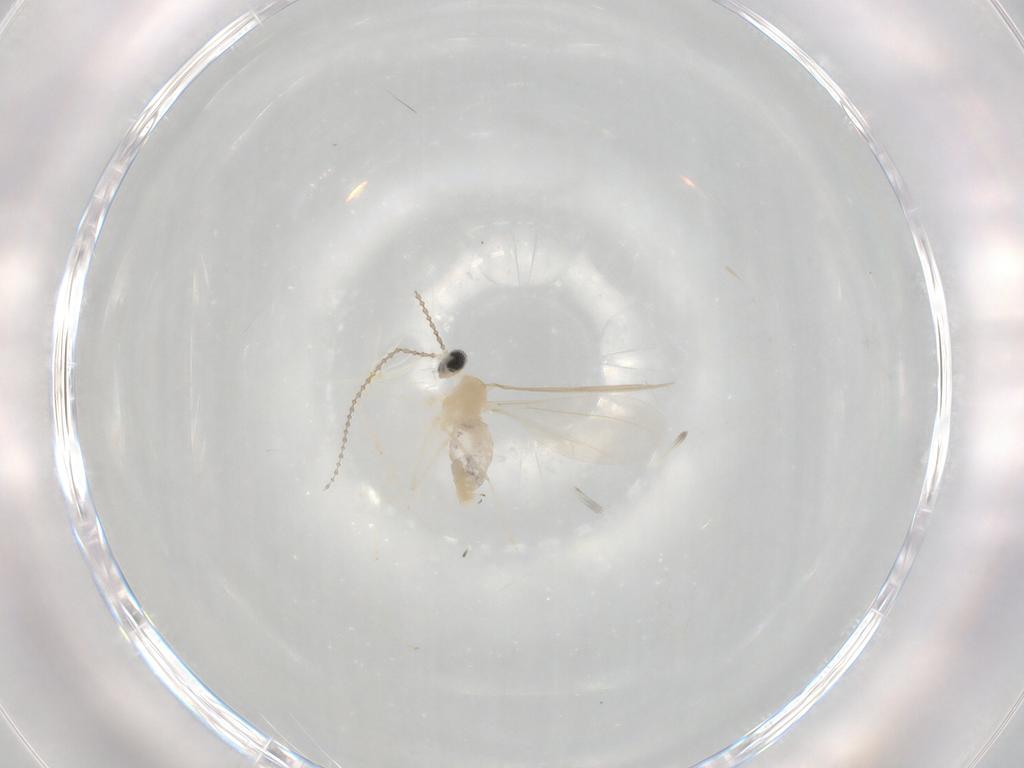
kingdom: Animalia
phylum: Arthropoda
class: Insecta
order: Diptera
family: Cecidomyiidae
